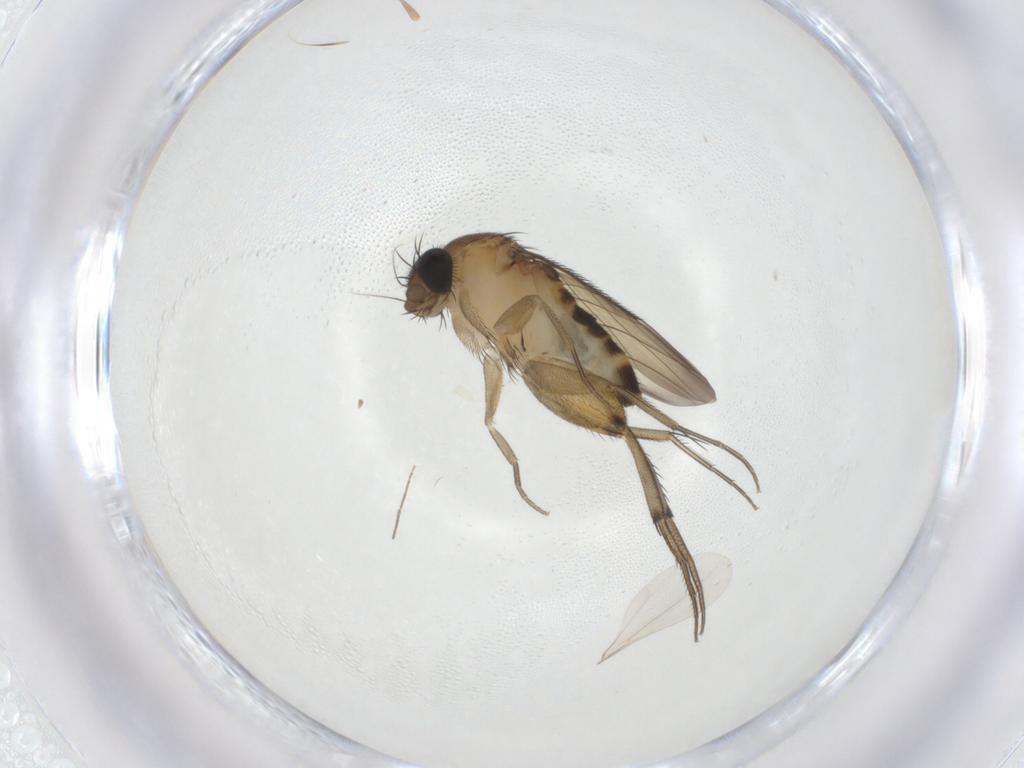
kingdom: Animalia
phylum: Arthropoda
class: Insecta
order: Diptera
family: Phoridae
